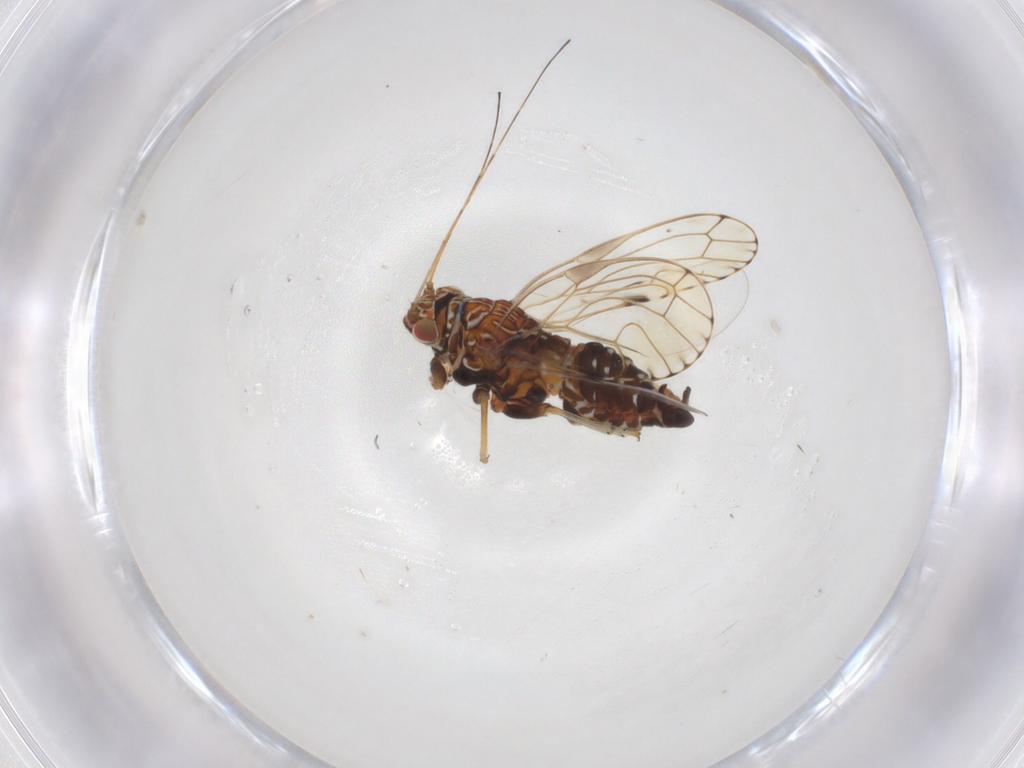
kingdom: Animalia
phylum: Arthropoda
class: Insecta
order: Hemiptera
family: Psylloidea_incertae_sedis
